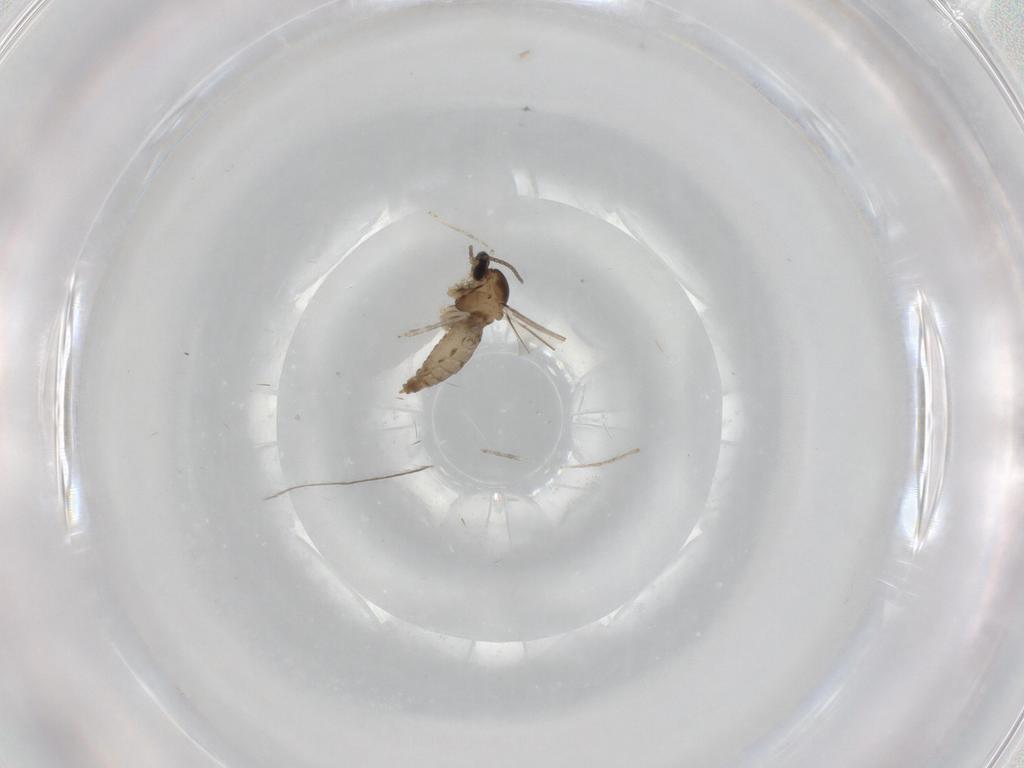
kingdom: Animalia
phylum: Arthropoda
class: Insecta
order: Diptera
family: Cecidomyiidae
